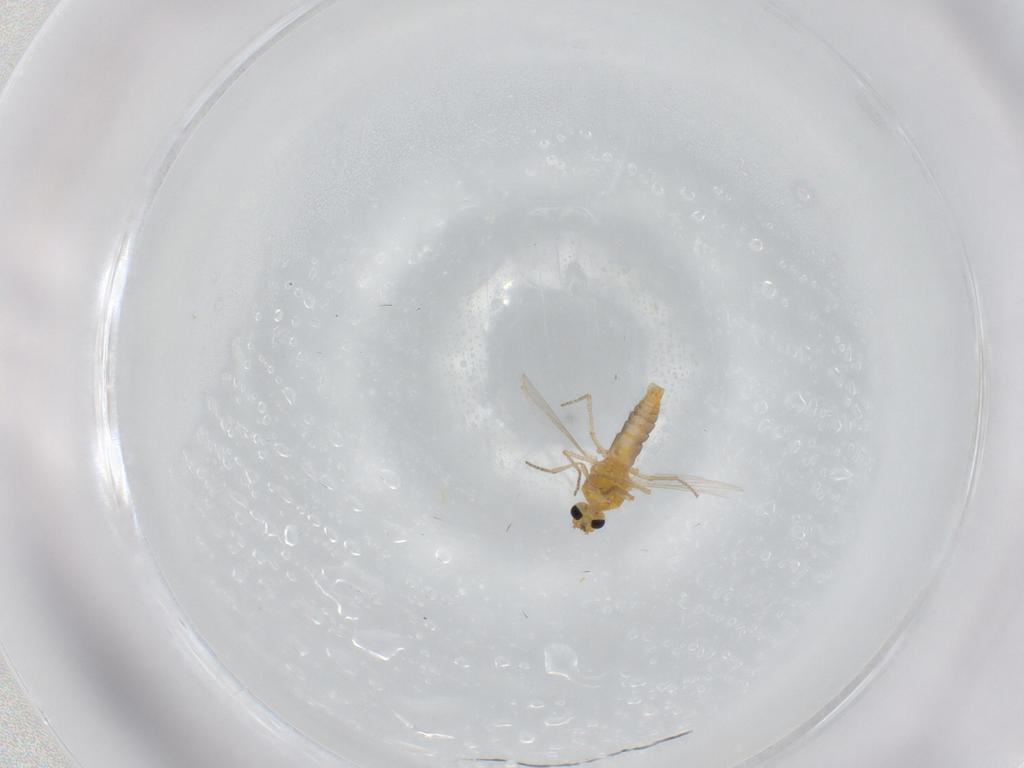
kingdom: Animalia
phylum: Arthropoda
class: Insecta
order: Diptera
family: Ceratopogonidae
